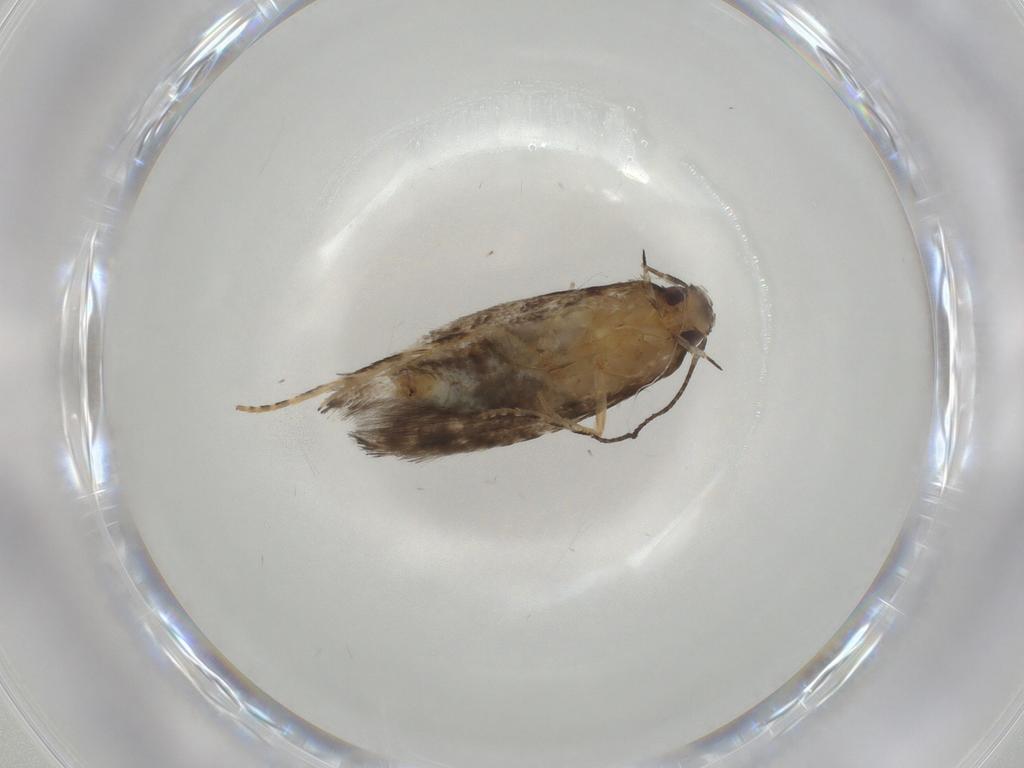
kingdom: Animalia
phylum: Arthropoda
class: Insecta
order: Lepidoptera
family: Elachistidae
